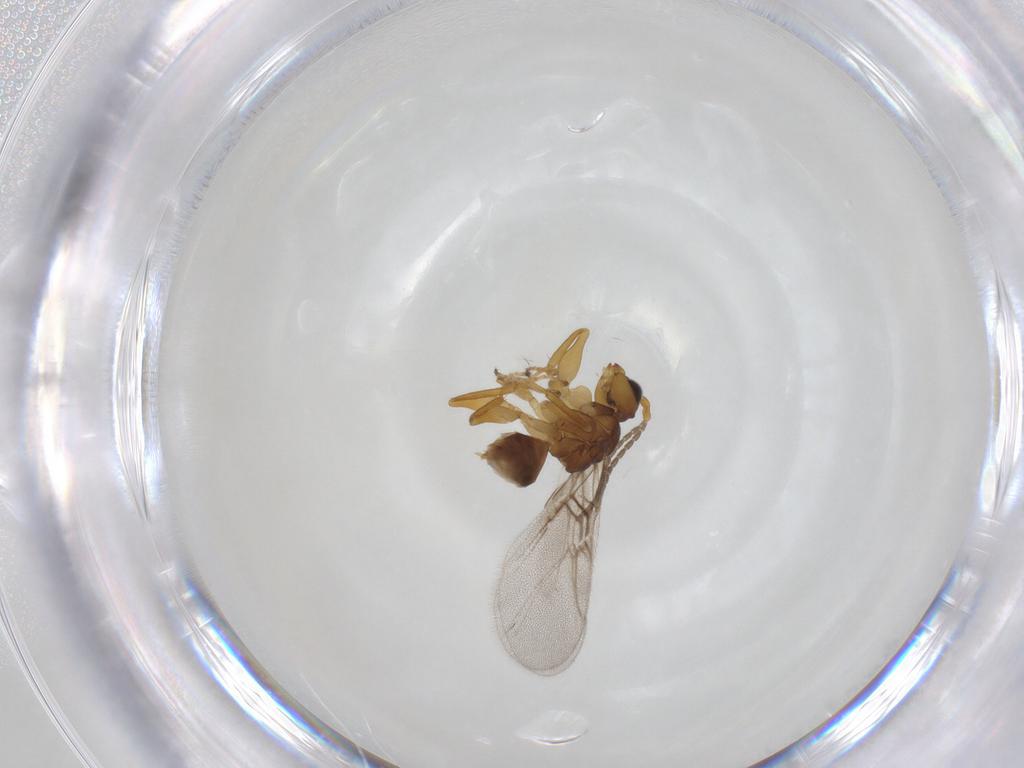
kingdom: Animalia
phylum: Arthropoda
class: Insecta
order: Hymenoptera
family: Cynipidae
